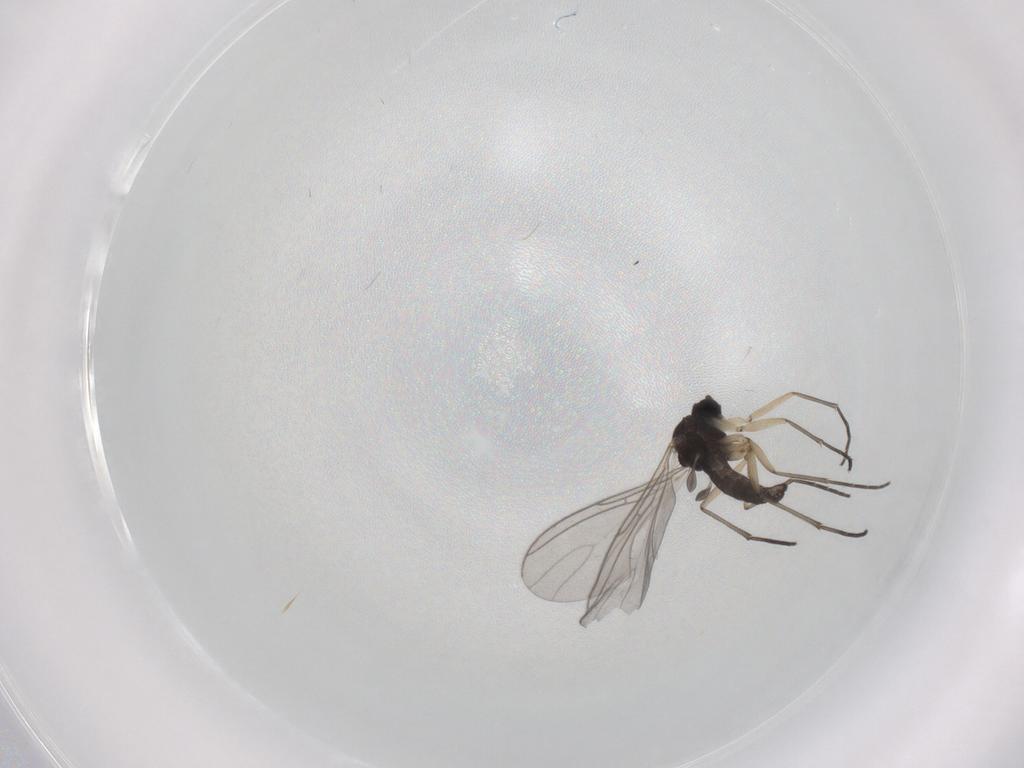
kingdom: Animalia
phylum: Arthropoda
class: Insecta
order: Diptera
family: Sciaridae
